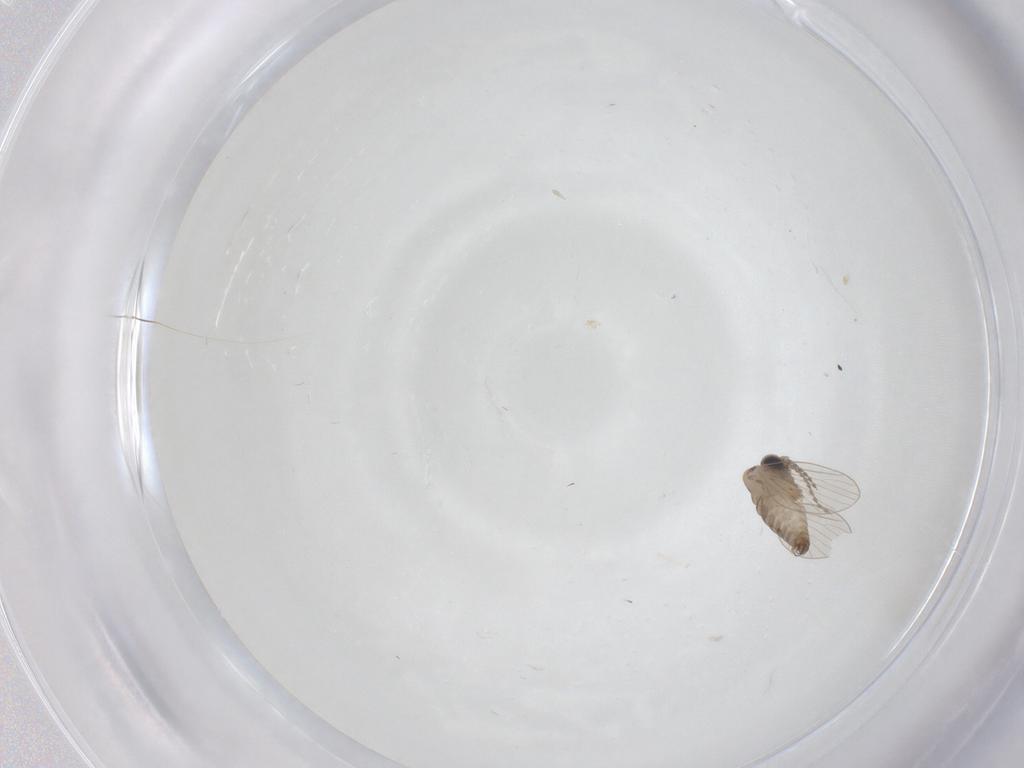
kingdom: Animalia
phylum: Arthropoda
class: Insecta
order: Diptera
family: Psychodidae
